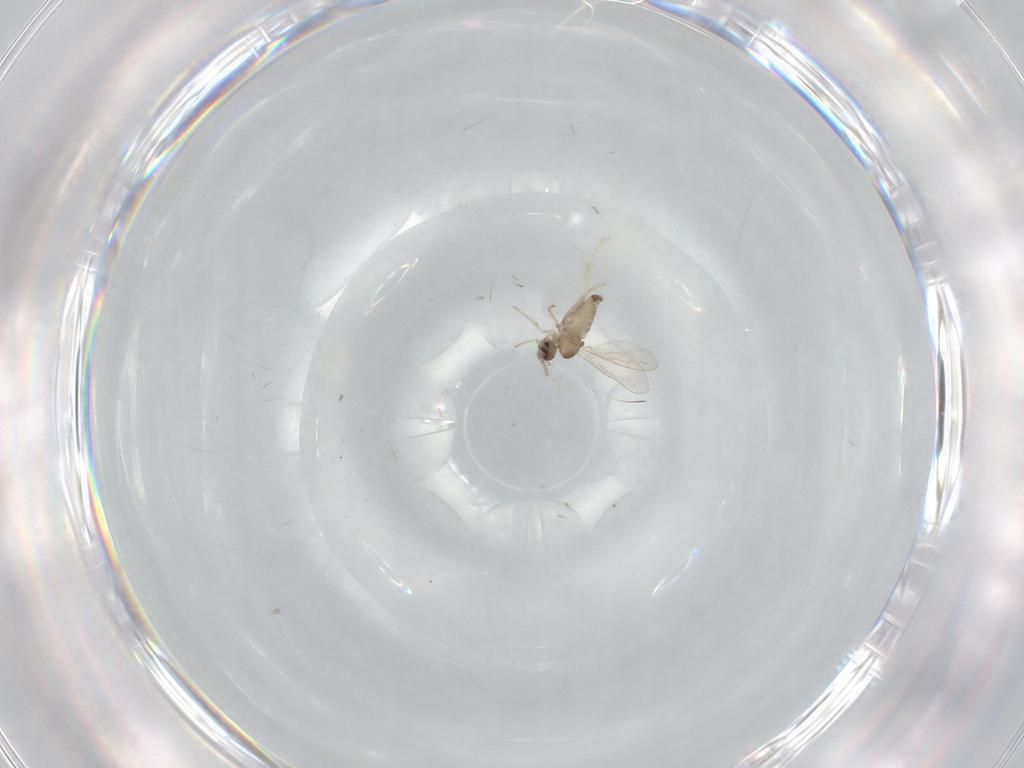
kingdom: Animalia
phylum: Arthropoda
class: Insecta
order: Diptera
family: Cecidomyiidae
